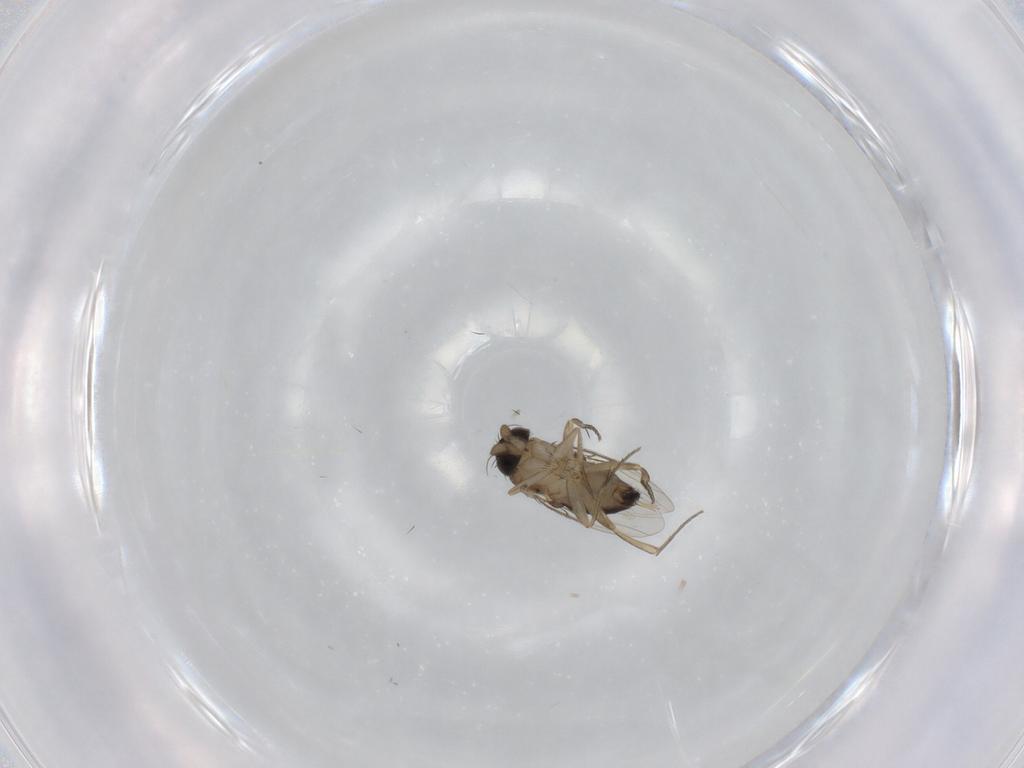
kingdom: Animalia
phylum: Arthropoda
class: Insecta
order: Diptera
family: Phoridae
